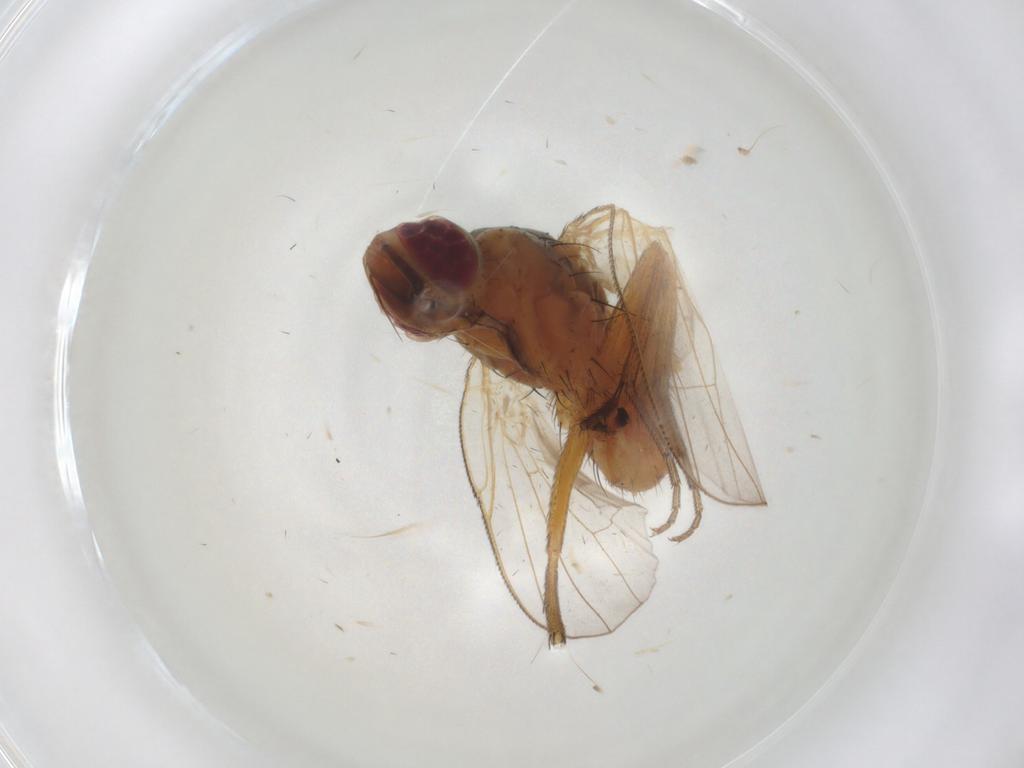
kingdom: Animalia
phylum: Arthropoda
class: Insecta
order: Diptera
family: Muscidae
